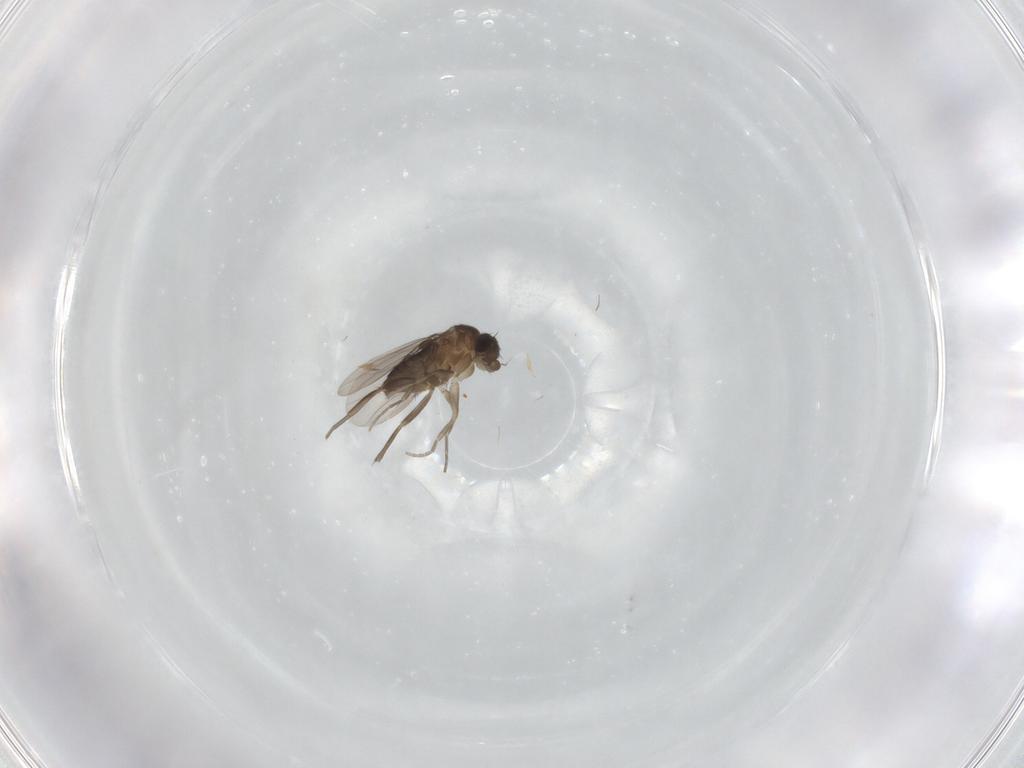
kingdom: Animalia
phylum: Arthropoda
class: Insecta
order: Diptera
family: Phoridae
